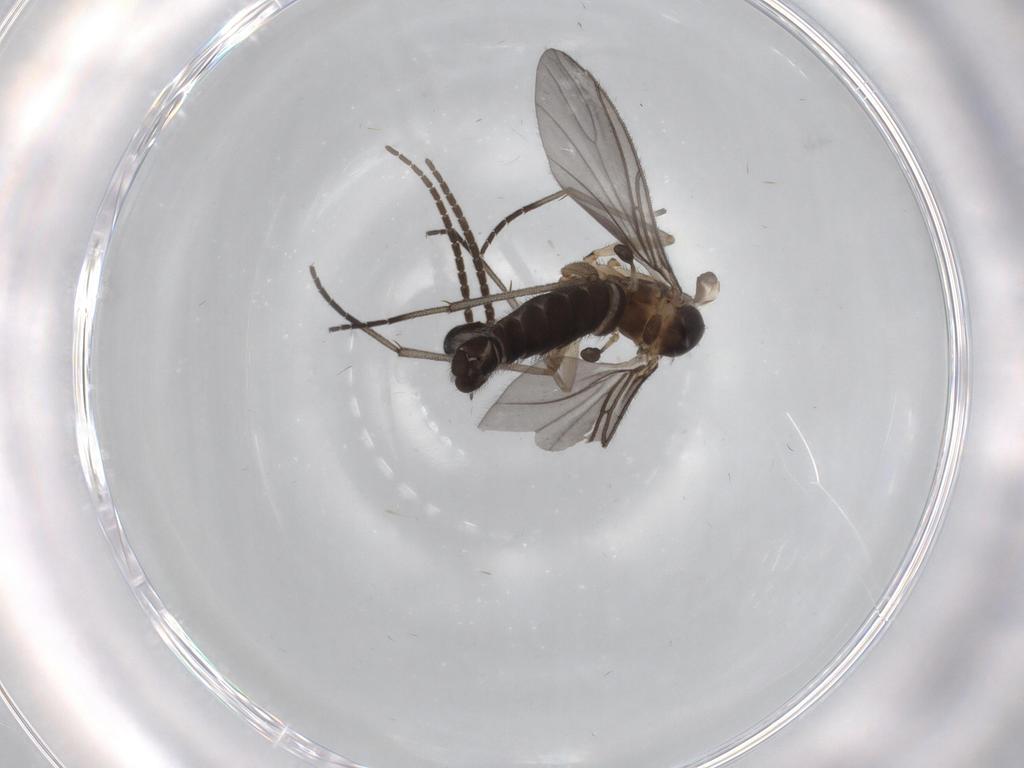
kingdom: Animalia
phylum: Arthropoda
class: Insecta
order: Diptera
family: Sciaridae
